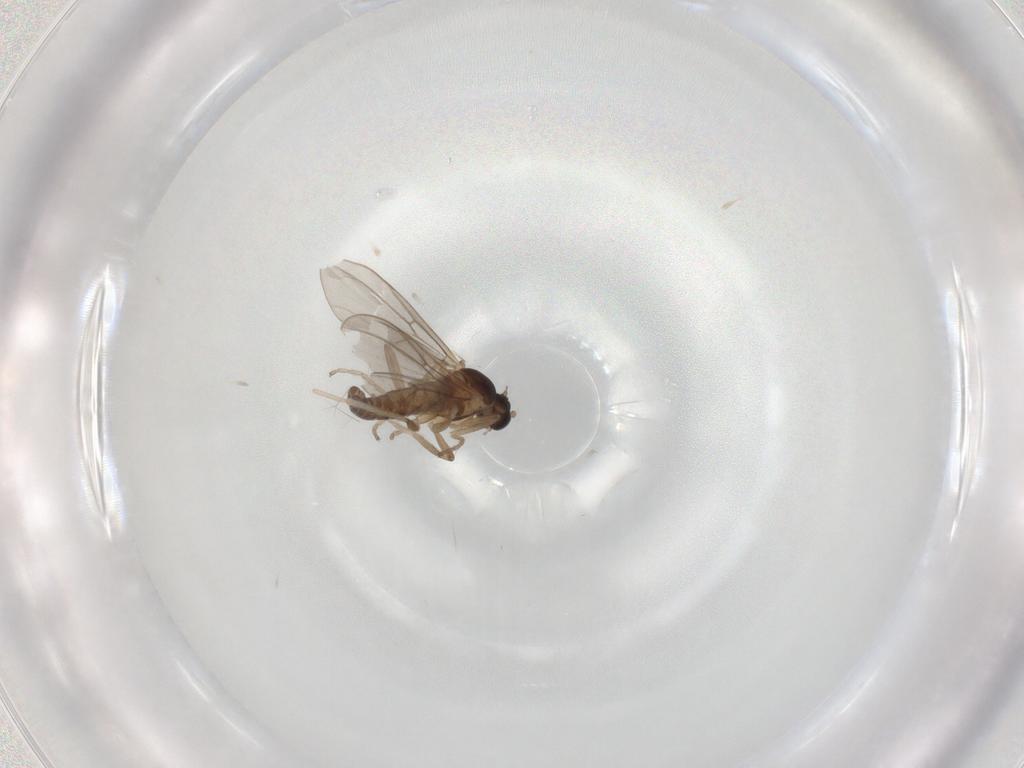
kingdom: Animalia
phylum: Arthropoda
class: Insecta
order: Diptera
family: Cecidomyiidae
